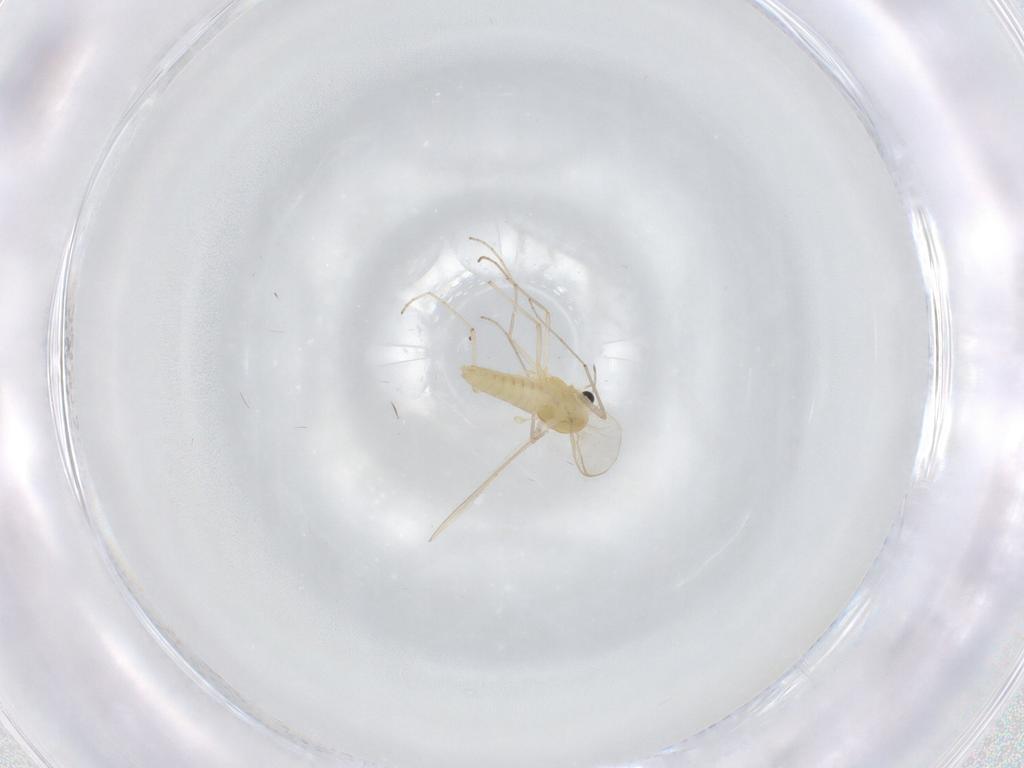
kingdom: Animalia
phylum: Arthropoda
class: Insecta
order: Diptera
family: Chironomidae
